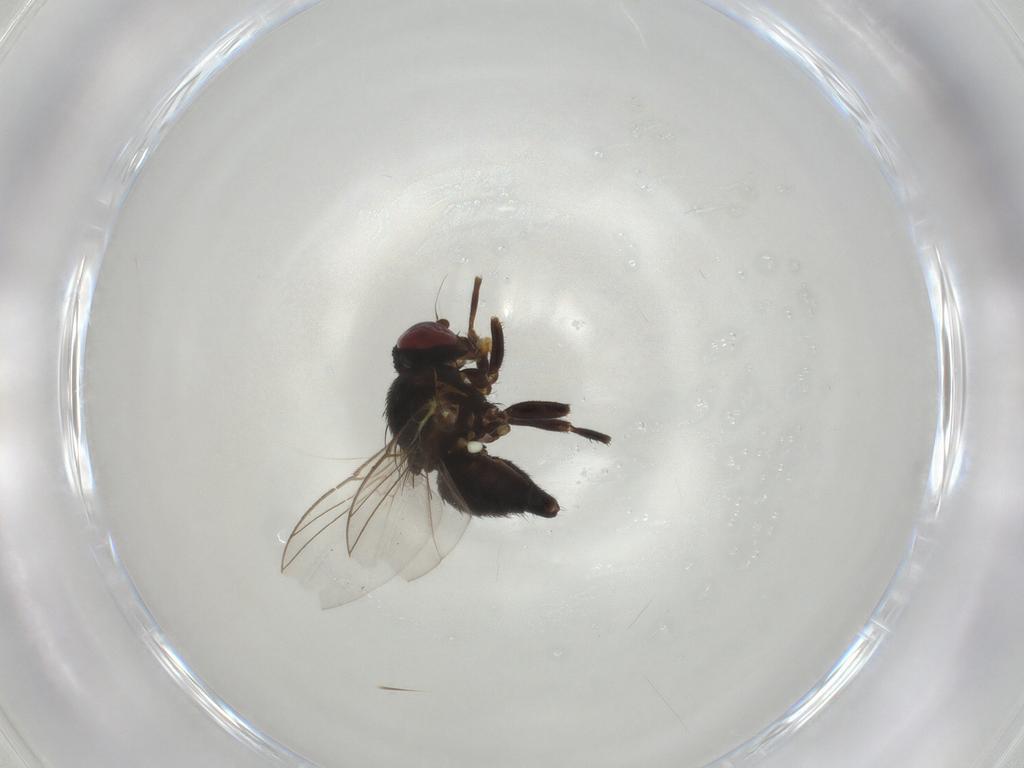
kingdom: Animalia
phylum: Arthropoda
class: Insecta
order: Diptera
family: Agromyzidae
